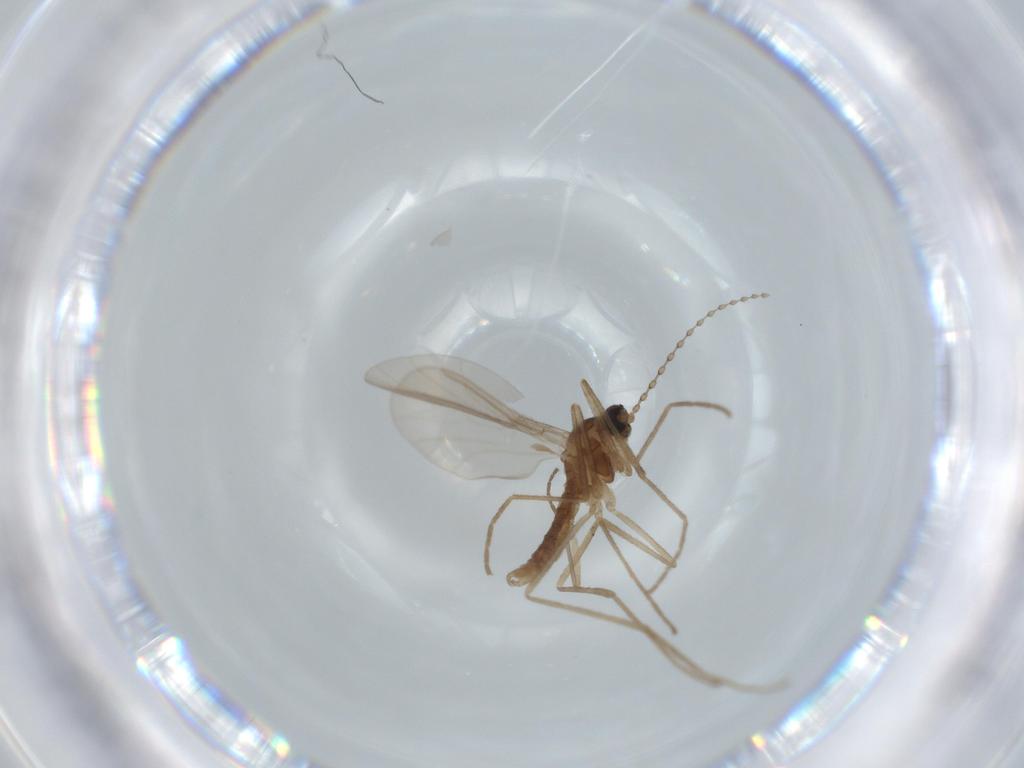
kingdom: Animalia
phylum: Arthropoda
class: Insecta
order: Diptera
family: Cecidomyiidae
